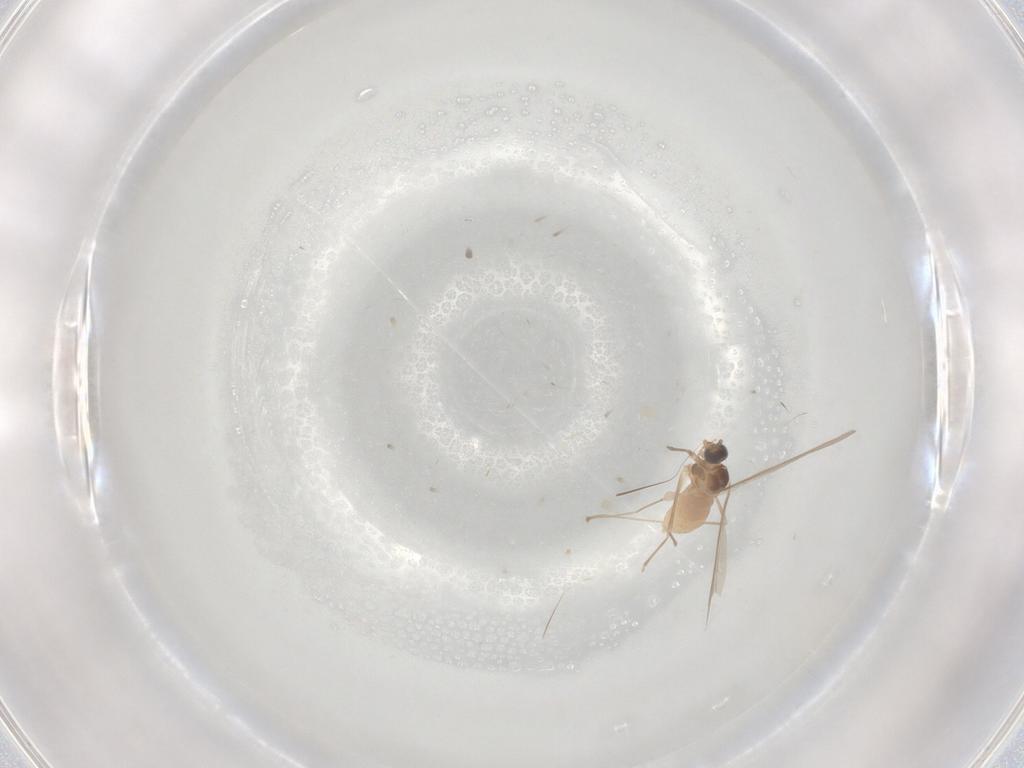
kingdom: Animalia
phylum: Arthropoda
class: Insecta
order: Diptera
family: Cecidomyiidae
